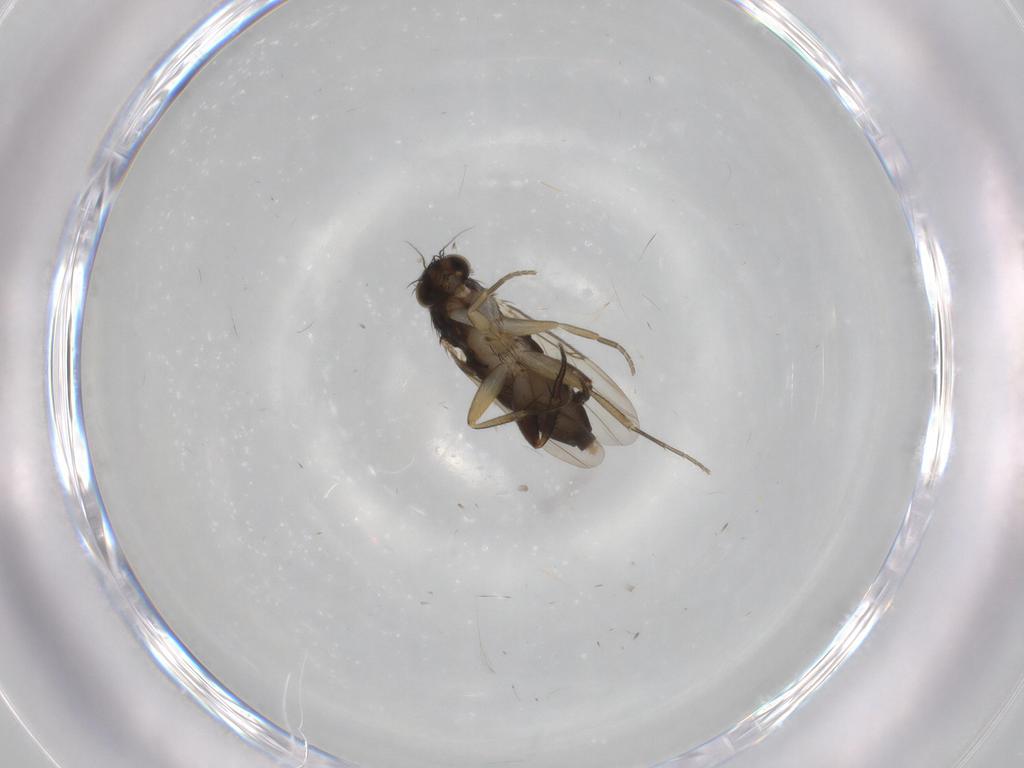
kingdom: Animalia
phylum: Arthropoda
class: Insecta
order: Diptera
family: Phoridae
